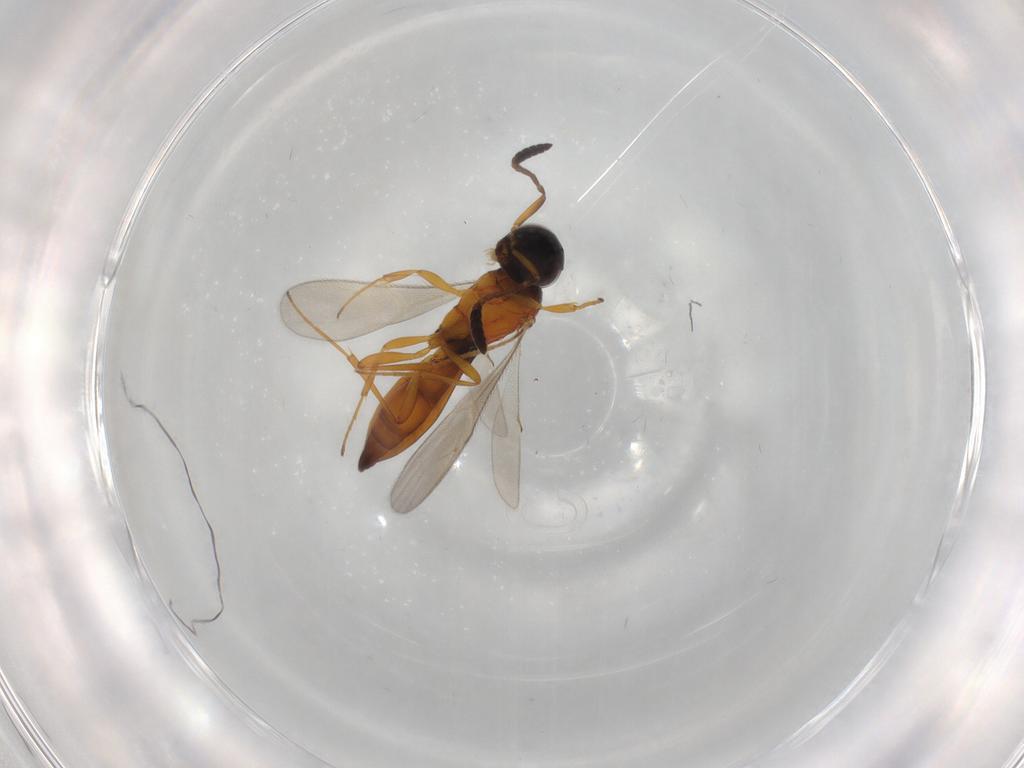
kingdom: Animalia
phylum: Arthropoda
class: Insecta
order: Hymenoptera
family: Scelionidae
